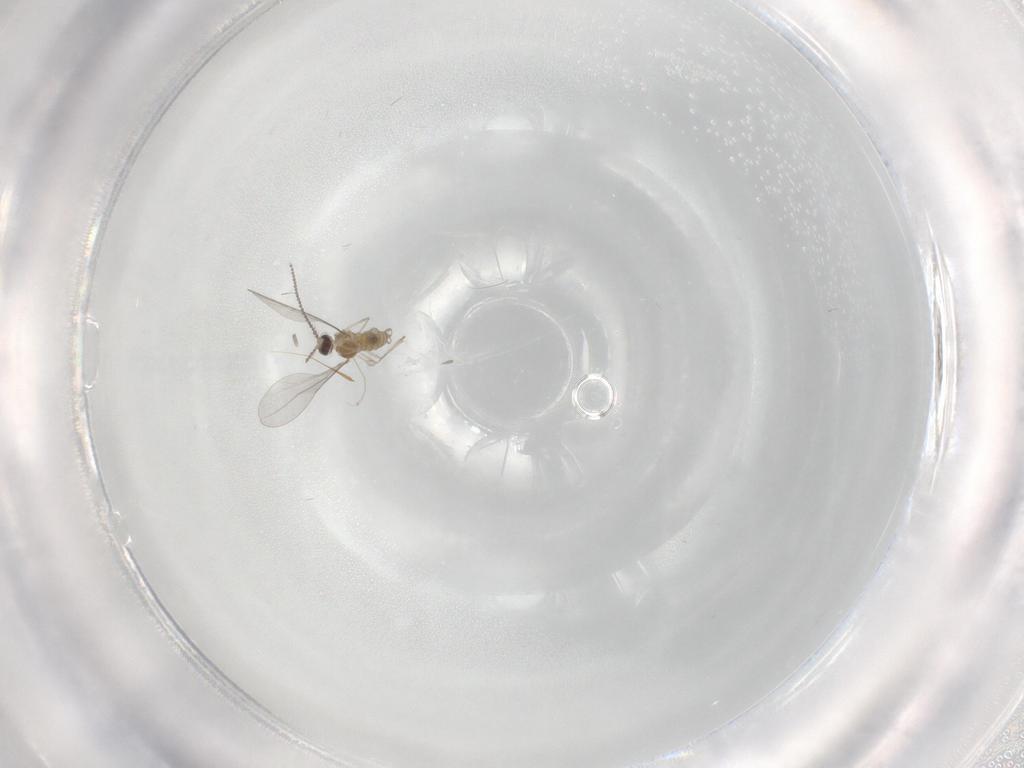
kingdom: Animalia
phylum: Arthropoda
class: Insecta
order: Diptera
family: Cecidomyiidae
